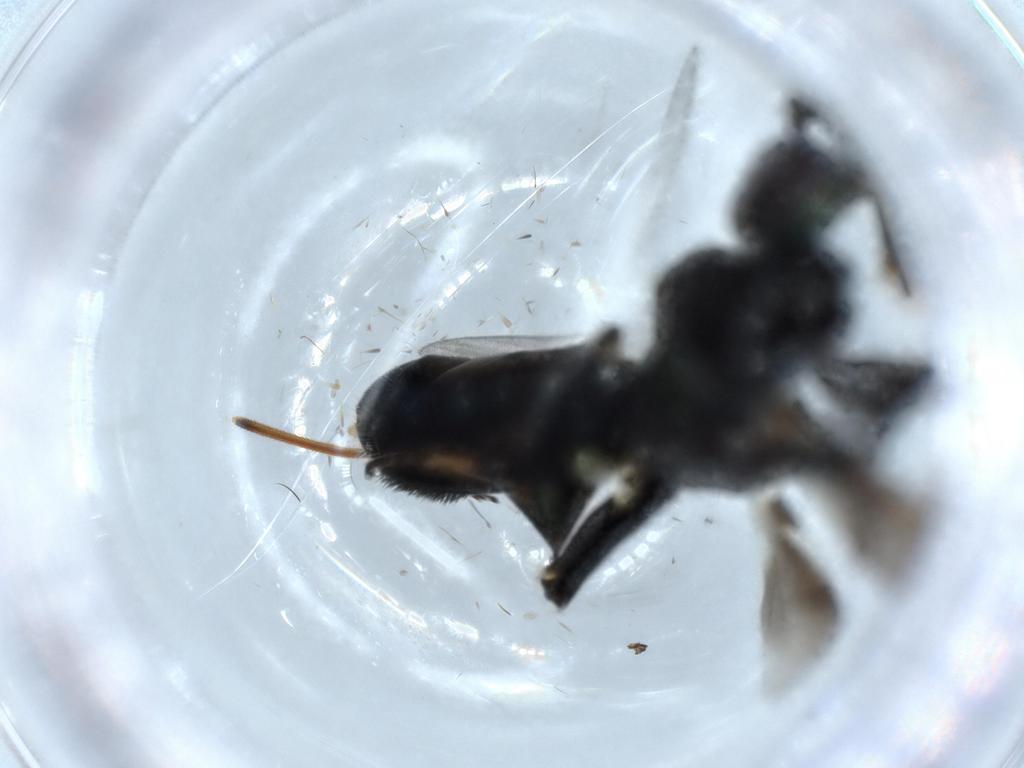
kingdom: Animalia
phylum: Arthropoda
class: Insecta
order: Hymenoptera
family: Eupelmidae
